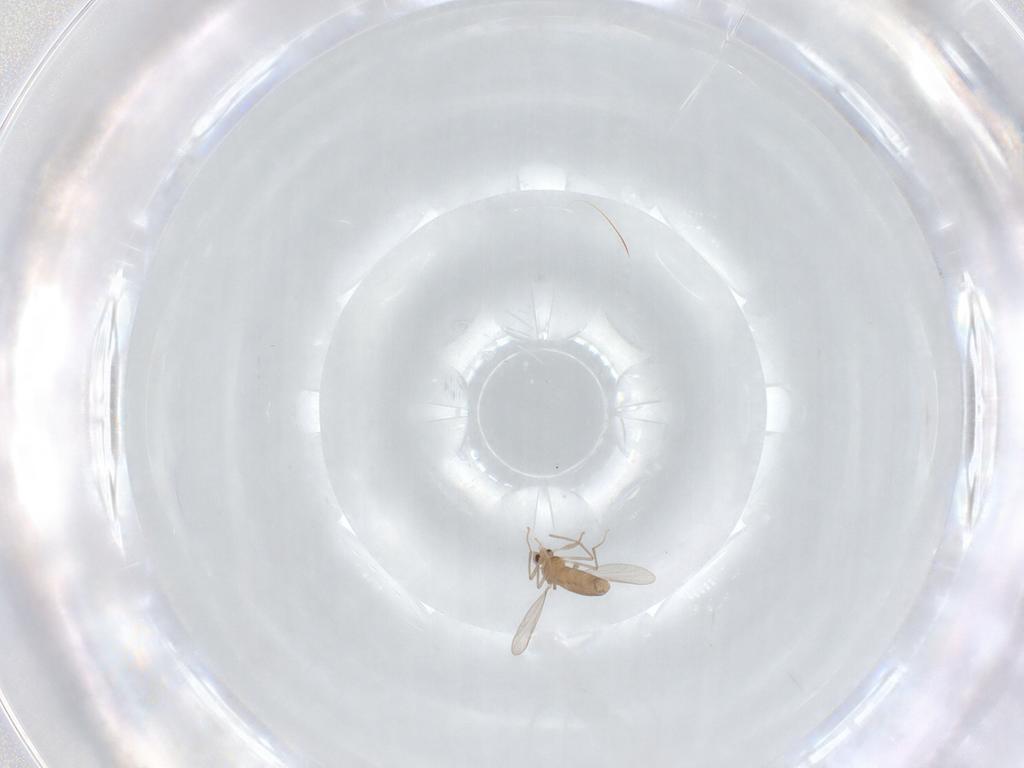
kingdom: Animalia
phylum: Arthropoda
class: Insecta
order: Diptera
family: Chironomidae
